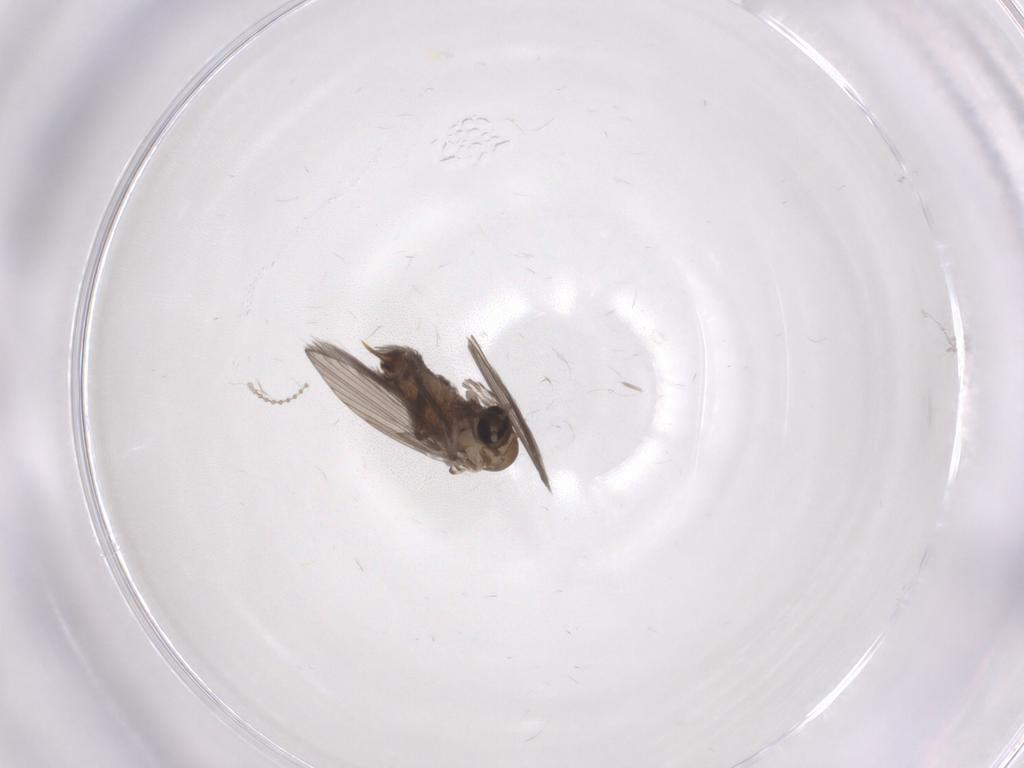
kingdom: Animalia
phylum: Arthropoda
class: Insecta
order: Diptera
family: Psychodidae
